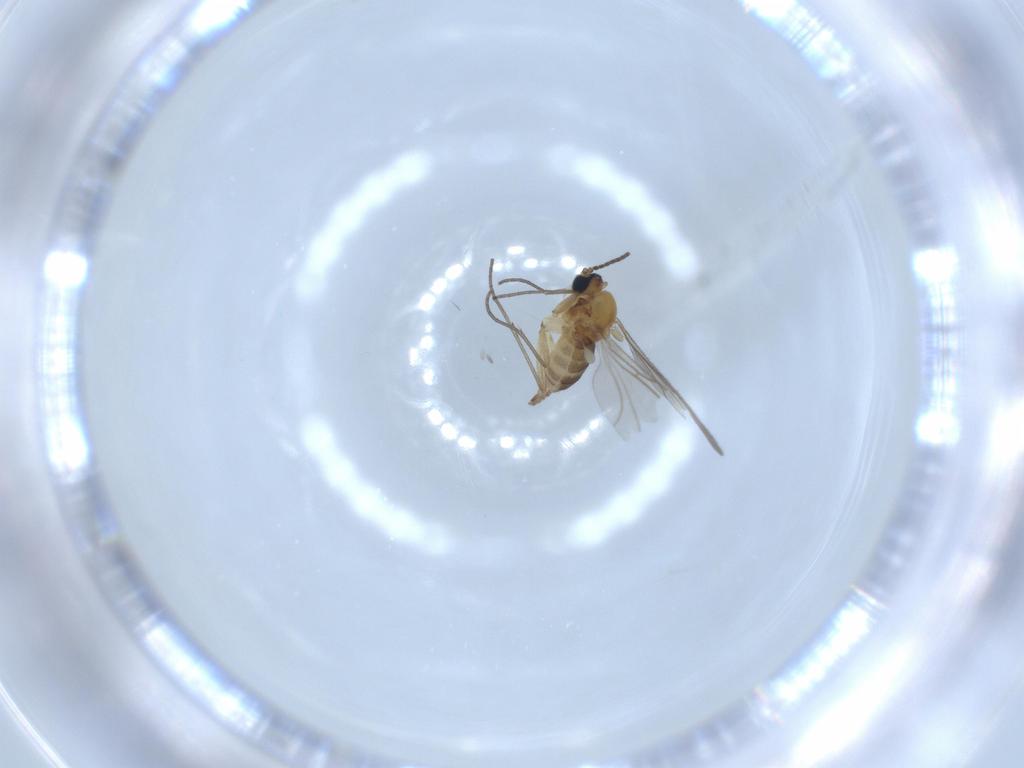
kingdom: Animalia
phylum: Arthropoda
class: Insecta
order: Diptera
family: Sciaridae
